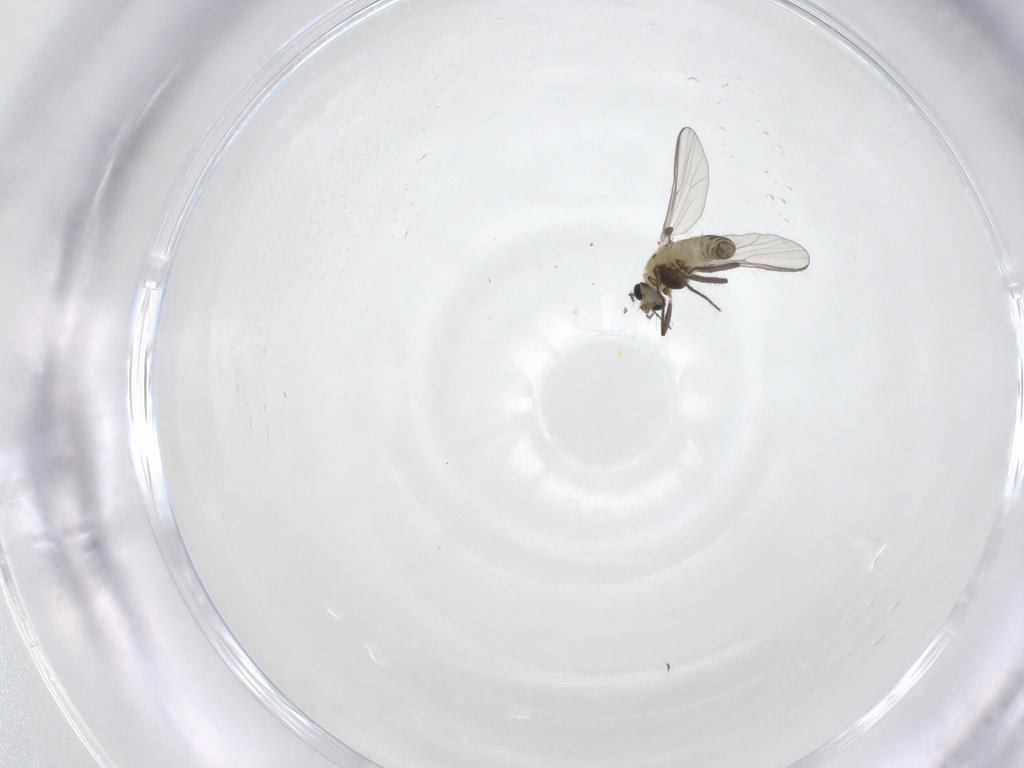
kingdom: Animalia
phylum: Arthropoda
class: Insecta
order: Diptera
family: Chironomidae
